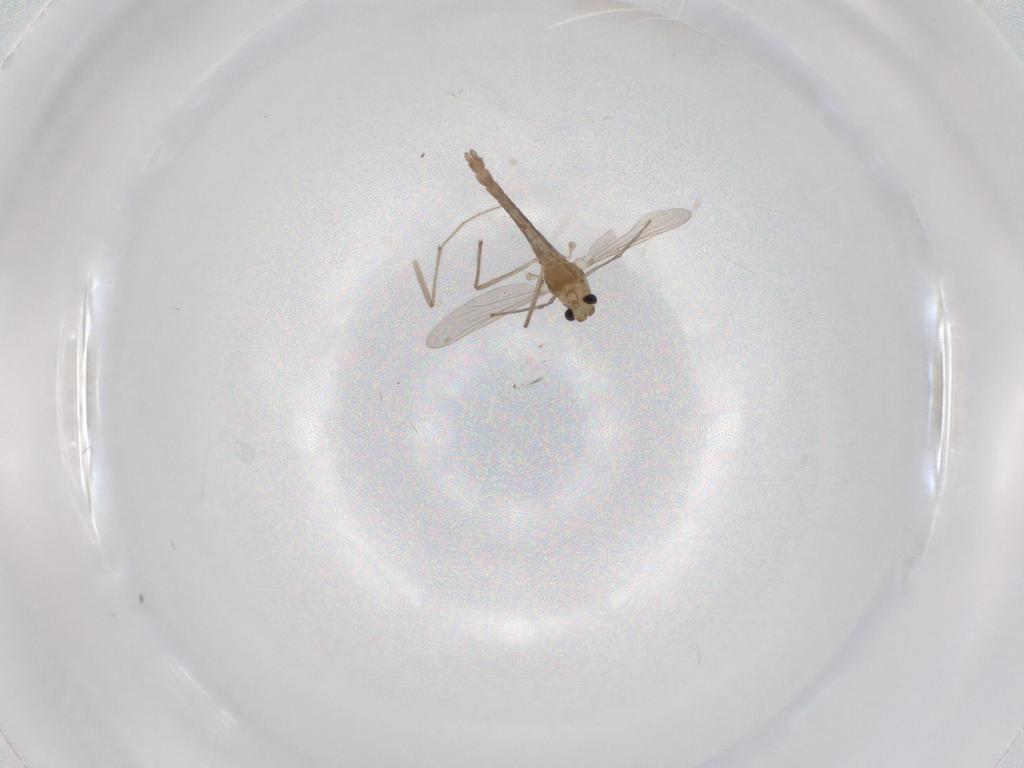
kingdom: Animalia
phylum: Arthropoda
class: Insecta
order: Diptera
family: Chironomidae
